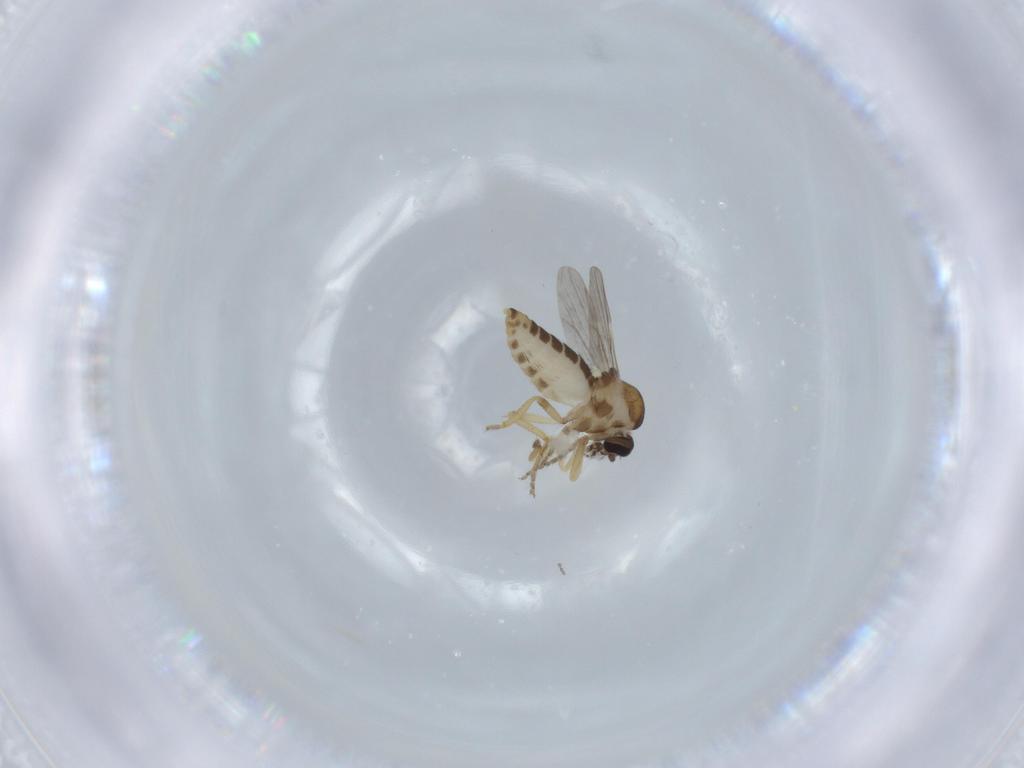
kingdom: Animalia
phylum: Arthropoda
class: Insecta
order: Diptera
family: Ceratopogonidae
